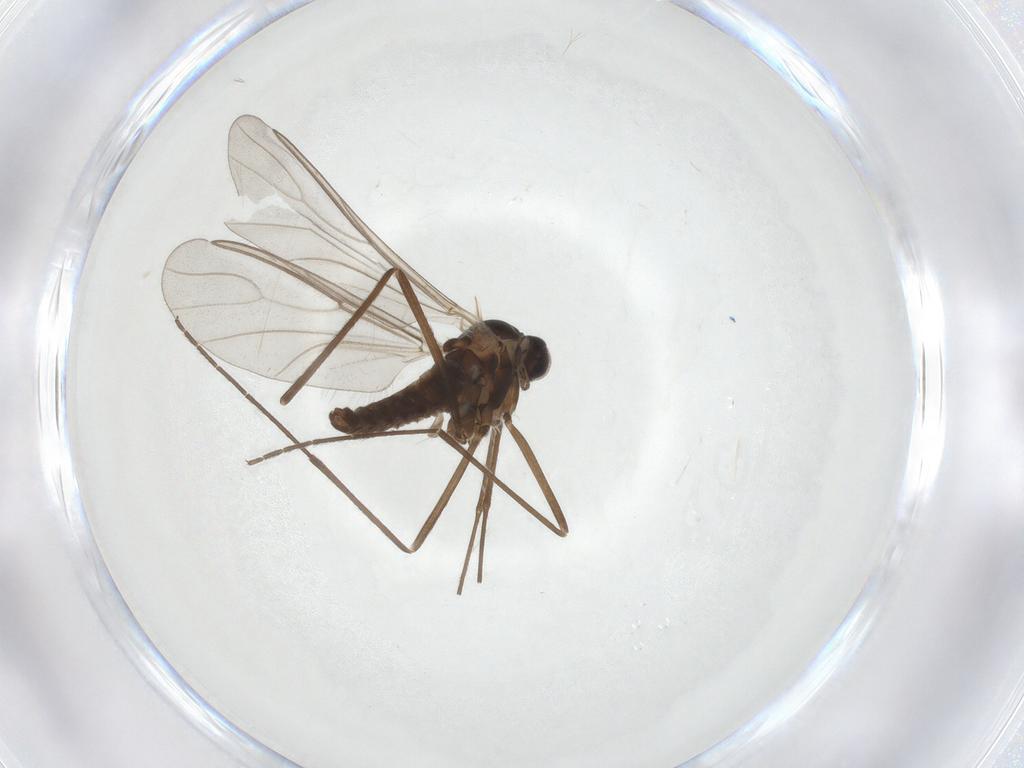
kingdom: Animalia
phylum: Arthropoda
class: Insecta
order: Diptera
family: Cecidomyiidae
